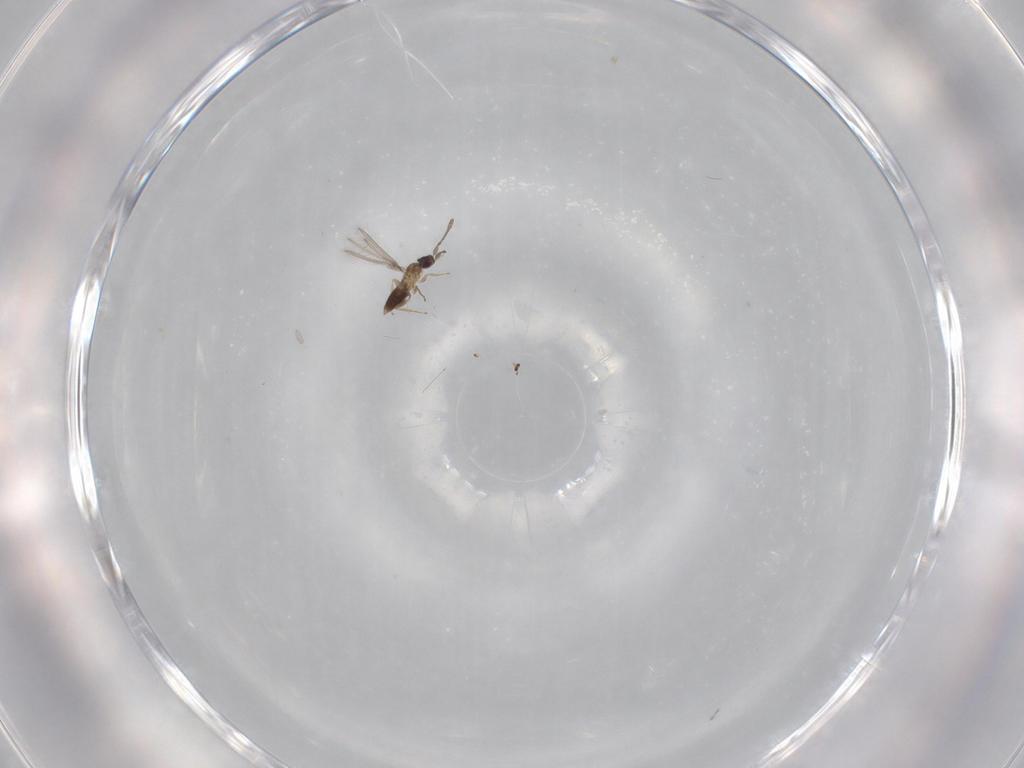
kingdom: Animalia
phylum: Arthropoda
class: Insecta
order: Hymenoptera
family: Mymaridae
